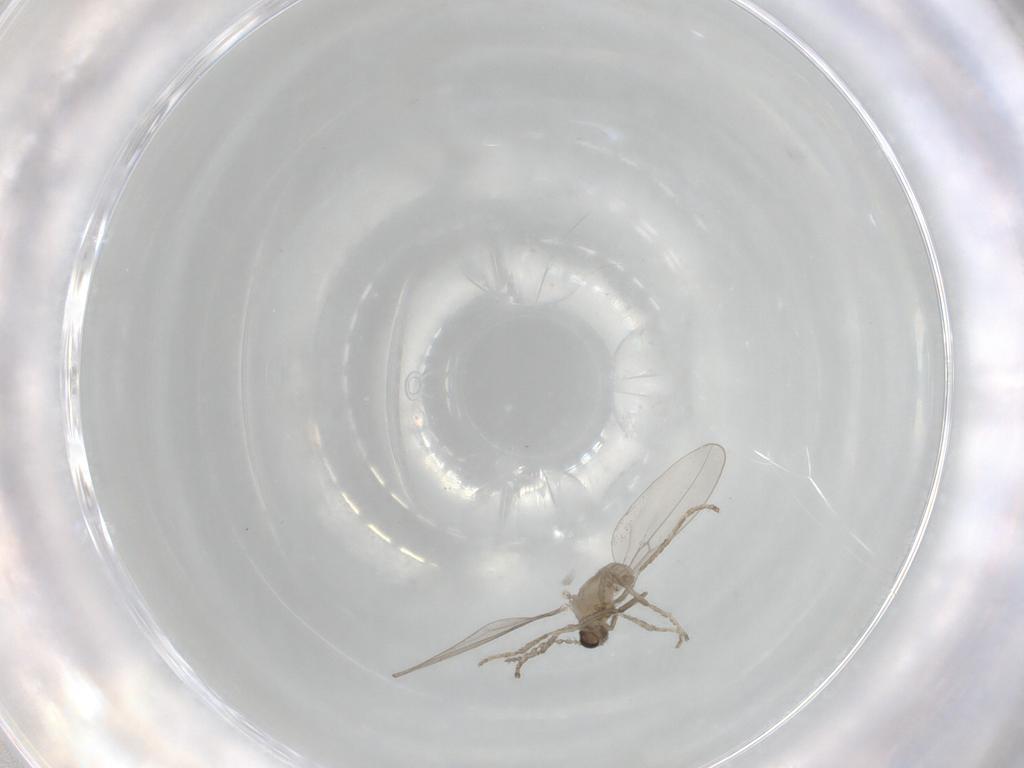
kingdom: Animalia
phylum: Arthropoda
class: Insecta
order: Diptera
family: Cecidomyiidae
